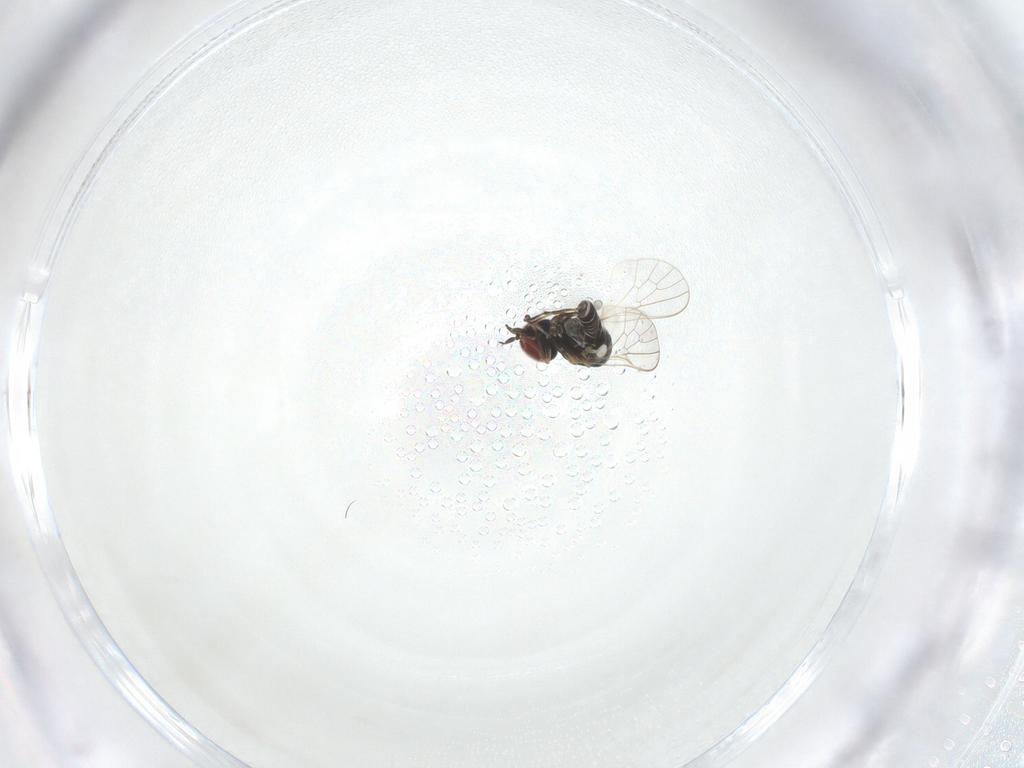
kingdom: Animalia
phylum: Arthropoda
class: Insecta
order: Diptera
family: Mythicomyiidae
